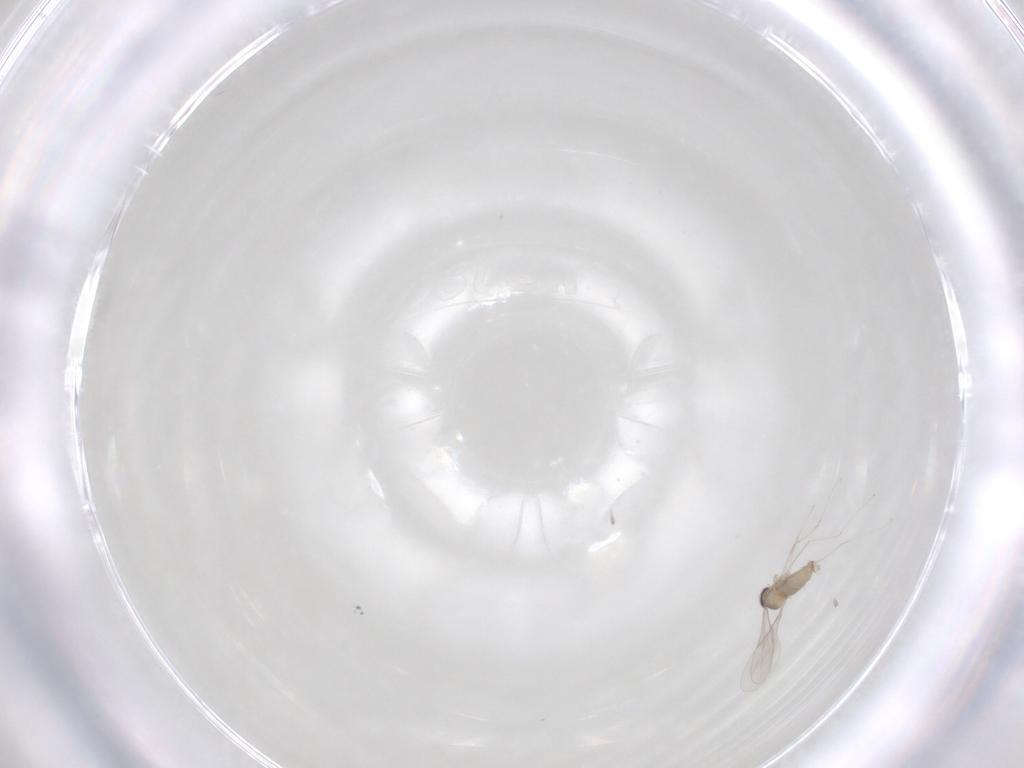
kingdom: Animalia
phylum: Arthropoda
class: Insecta
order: Diptera
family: Cecidomyiidae
